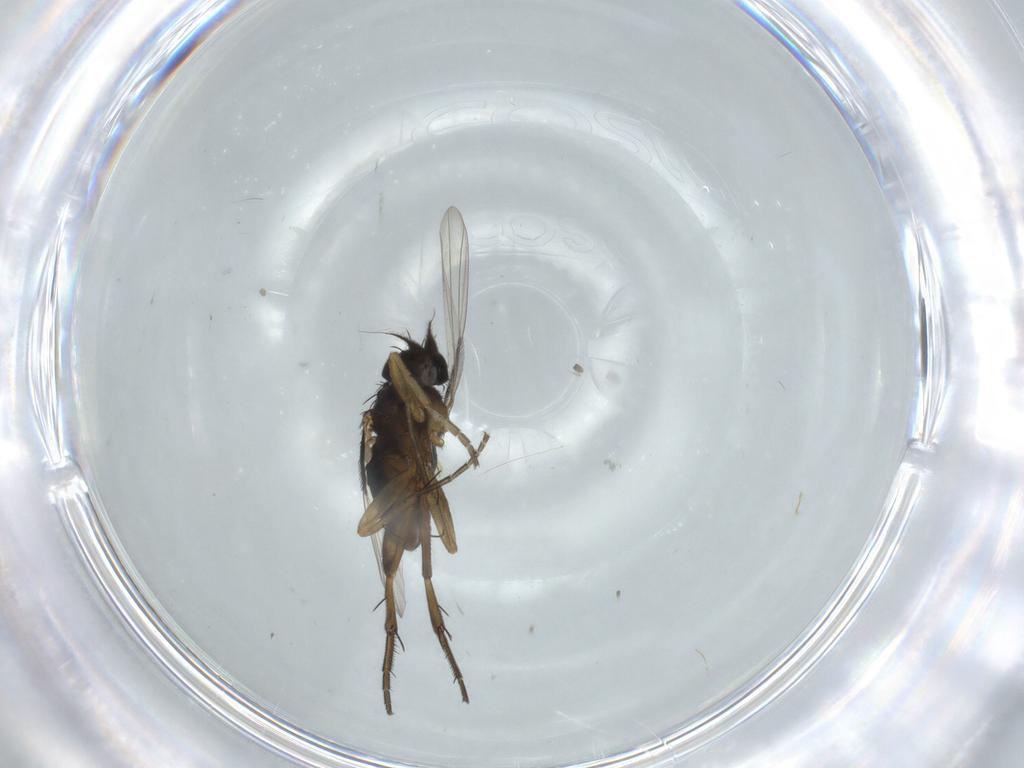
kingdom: Animalia
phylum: Arthropoda
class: Insecta
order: Diptera
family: Phoridae
